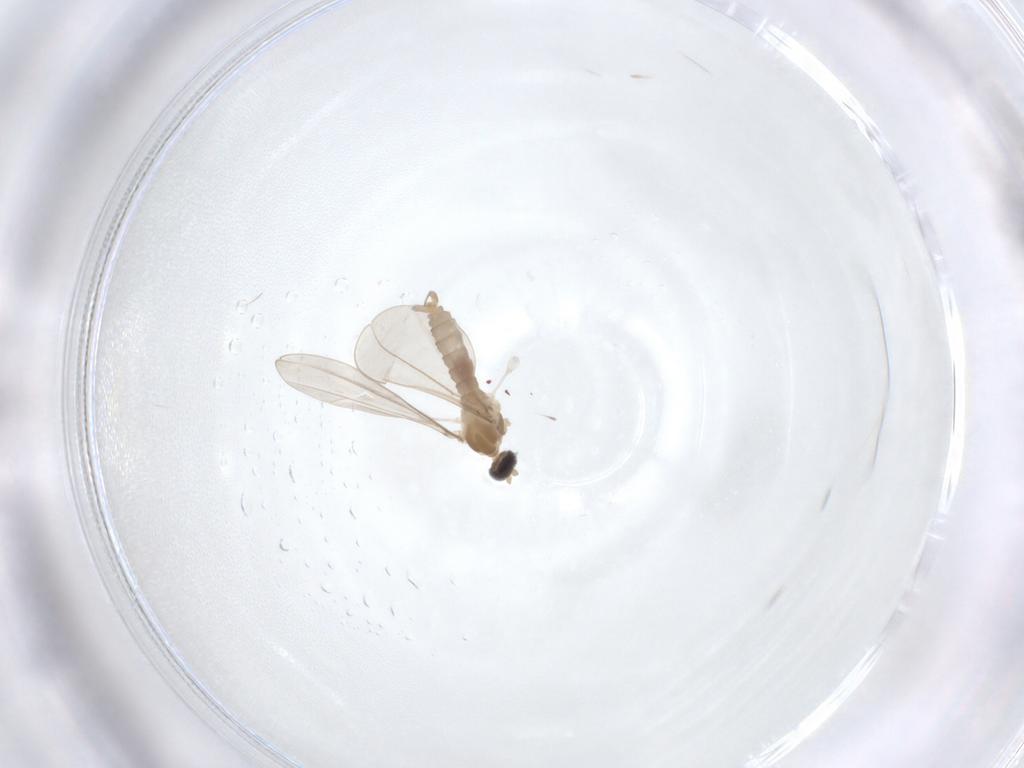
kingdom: Animalia
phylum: Arthropoda
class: Insecta
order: Diptera
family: Cecidomyiidae
